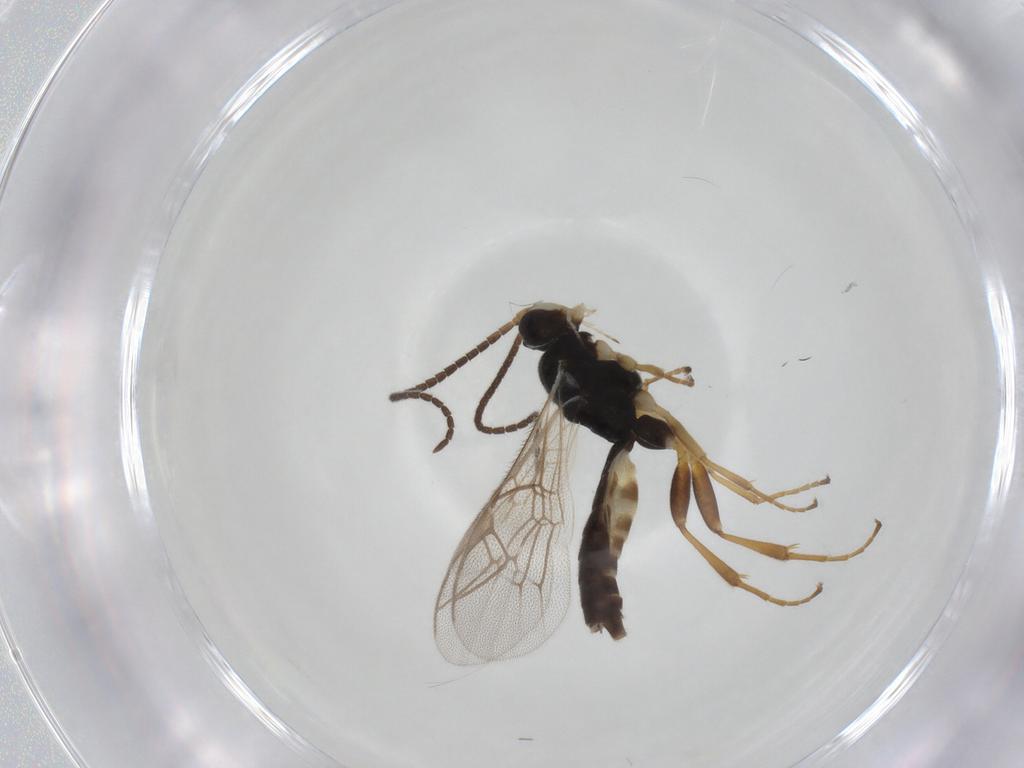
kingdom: Animalia
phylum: Arthropoda
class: Insecta
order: Hymenoptera
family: Ichneumonidae
